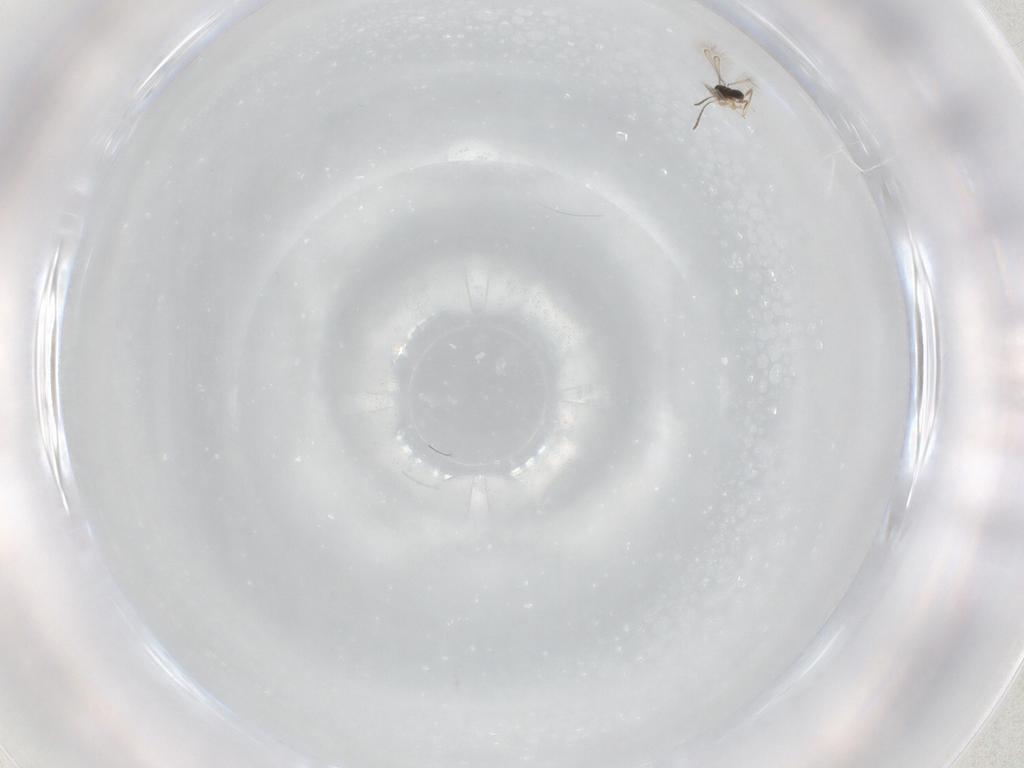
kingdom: Animalia
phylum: Arthropoda
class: Insecta
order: Hymenoptera
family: Mymaridae
